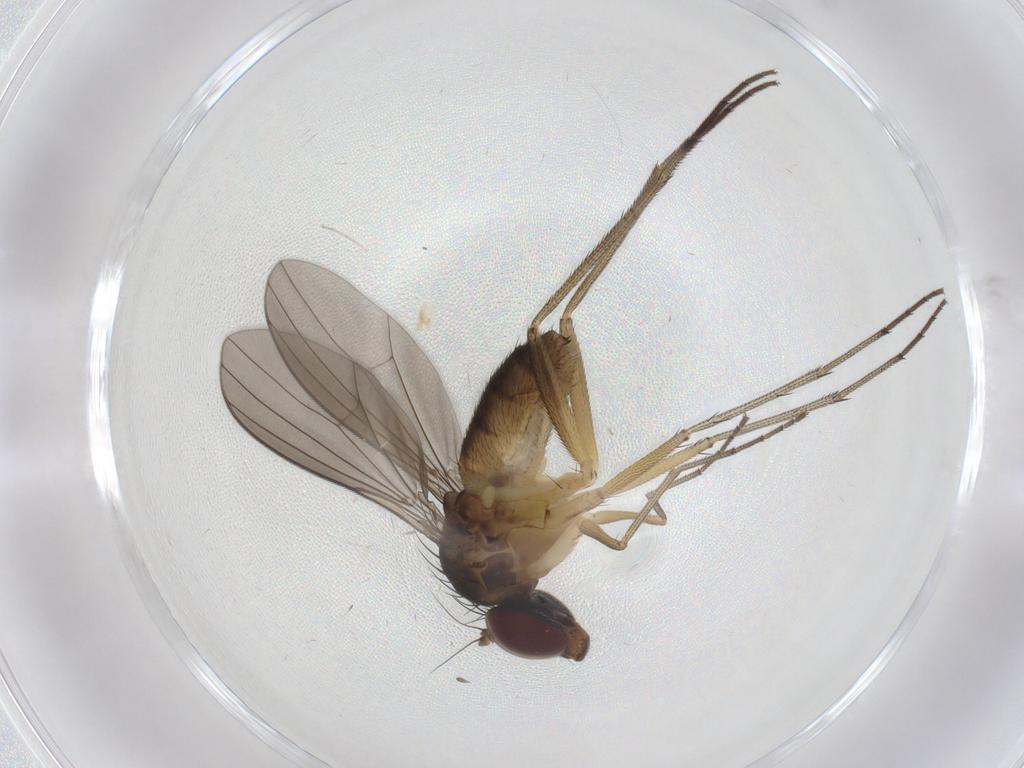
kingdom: Animalia
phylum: Arthropoda
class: Insecta
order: Diptera
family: Dolichopodidae
